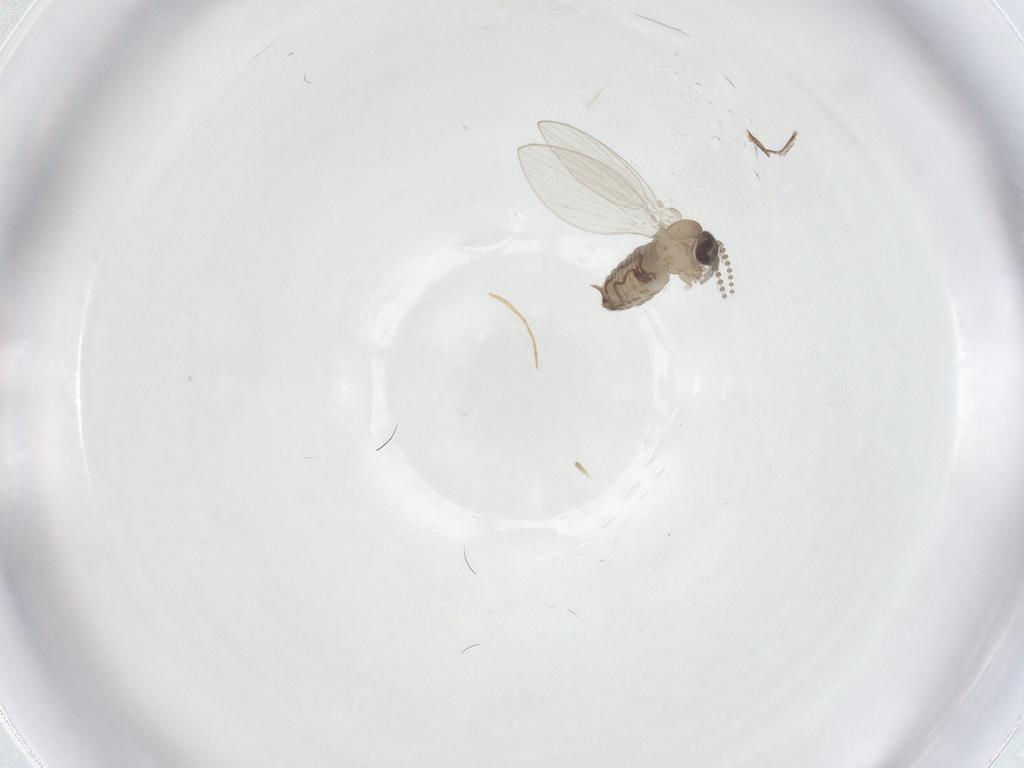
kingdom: Animalia
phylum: Arthropoda
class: Insecta
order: Diptera
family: Psychodidae
